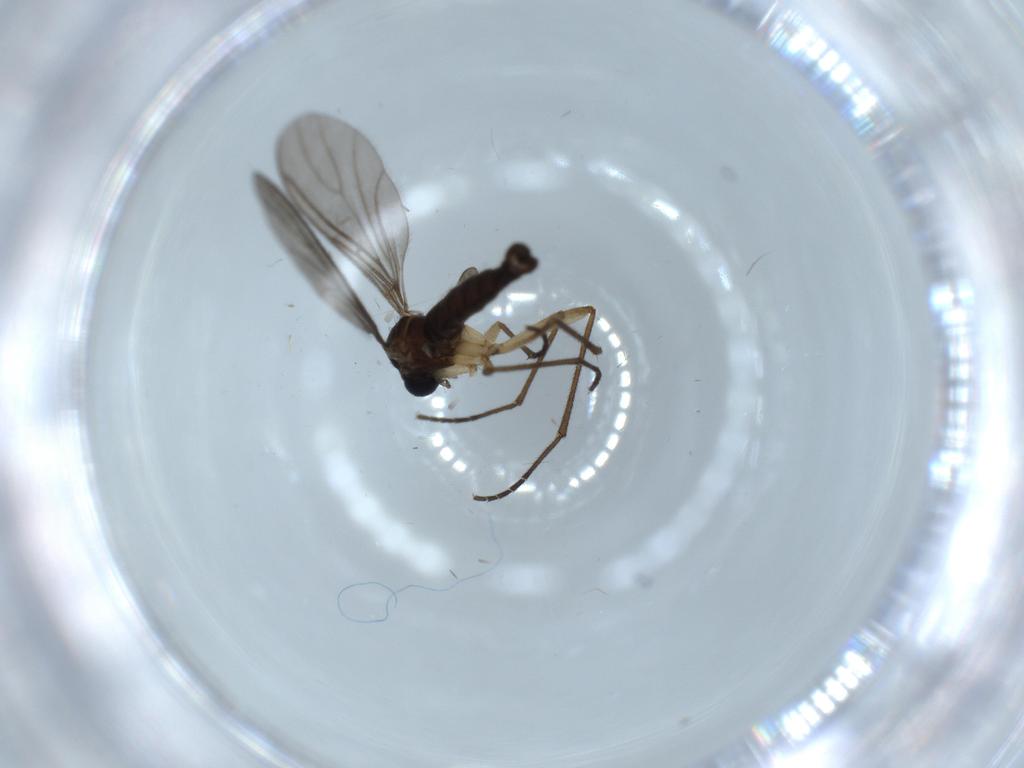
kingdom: Animalia
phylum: Arthropoda
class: Insecta
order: Diptera
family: Sciaridae
